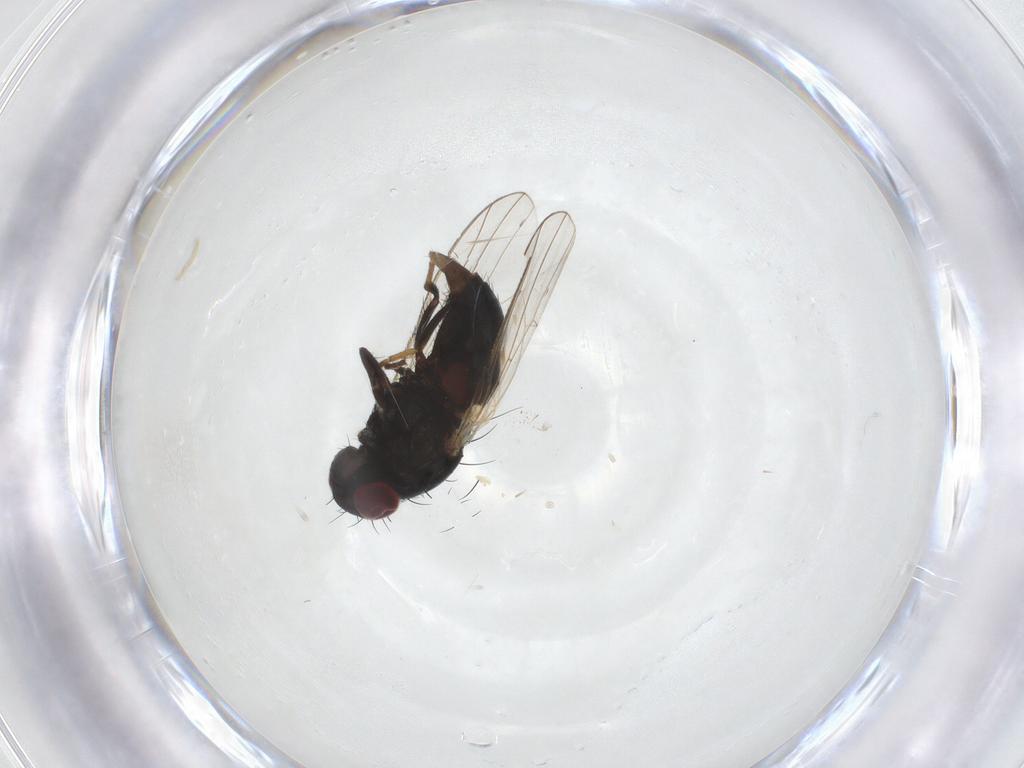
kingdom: Animalia
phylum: Arthropoda
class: Insecta
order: Diptera
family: Carnidae
